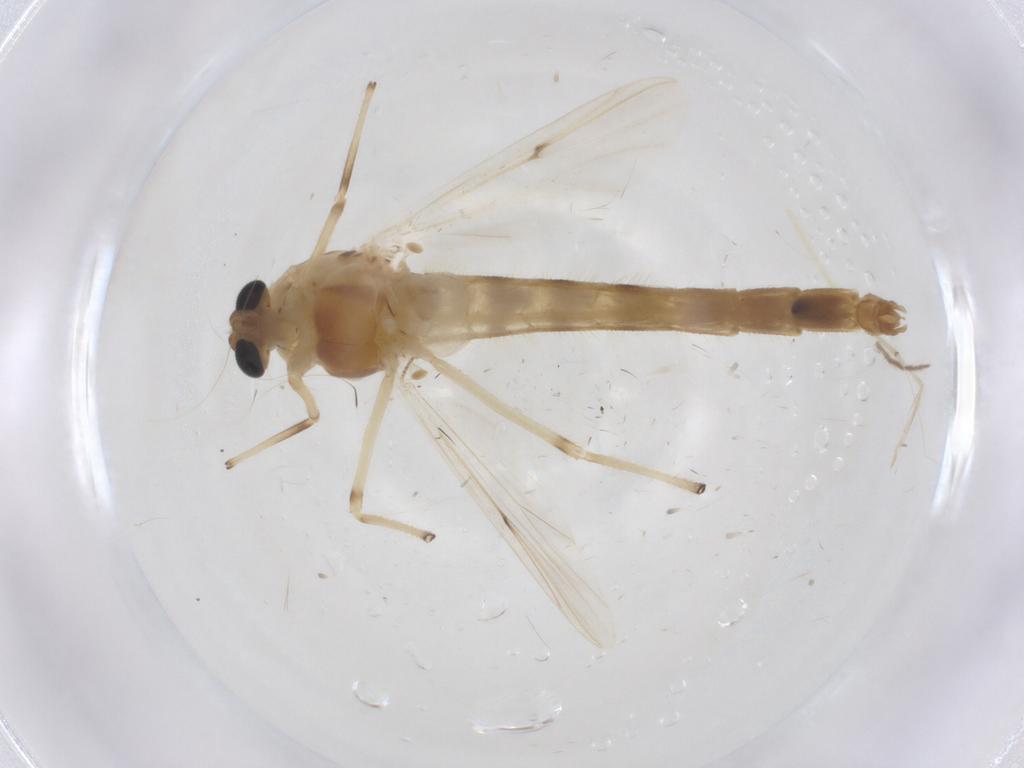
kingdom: Animalia
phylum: Arthropoda
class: Insecta
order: Diptera
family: Chironomidae
